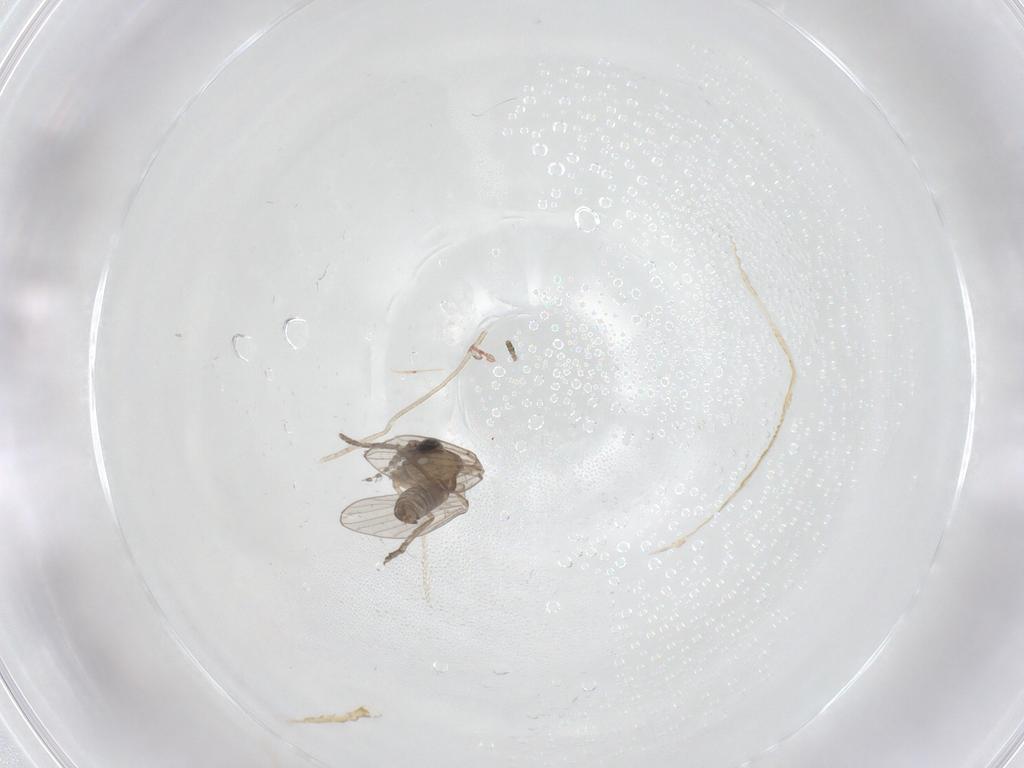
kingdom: Animalia
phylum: Arthropoda
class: Insecta
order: Diptera
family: Psychodidae
